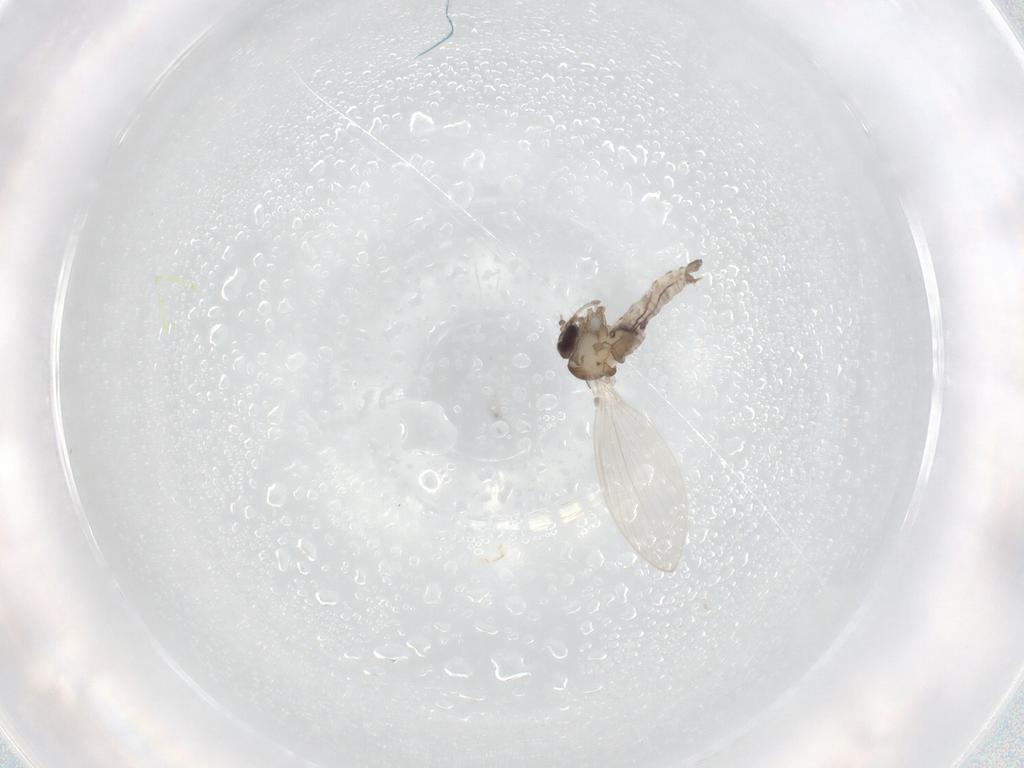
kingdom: Animalia
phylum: Arthropoda
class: Insecta
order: Diptera
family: Psychodidae
